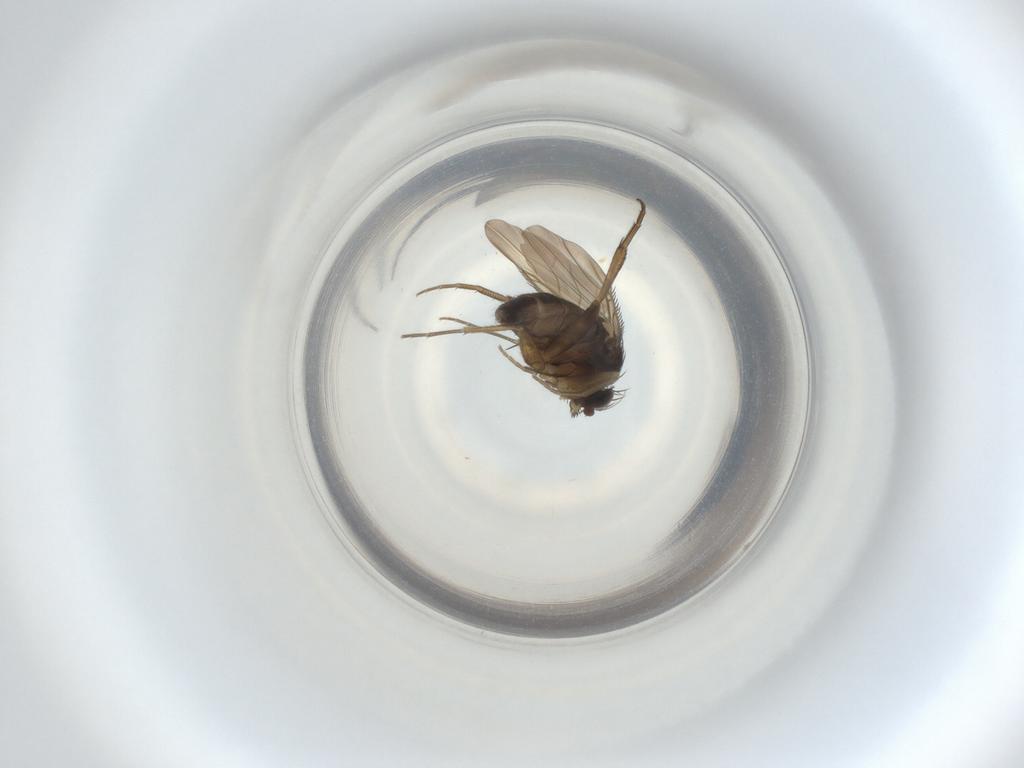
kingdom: Animalia
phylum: Arthropoda
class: Insecta
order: Diptera
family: Phoridae
